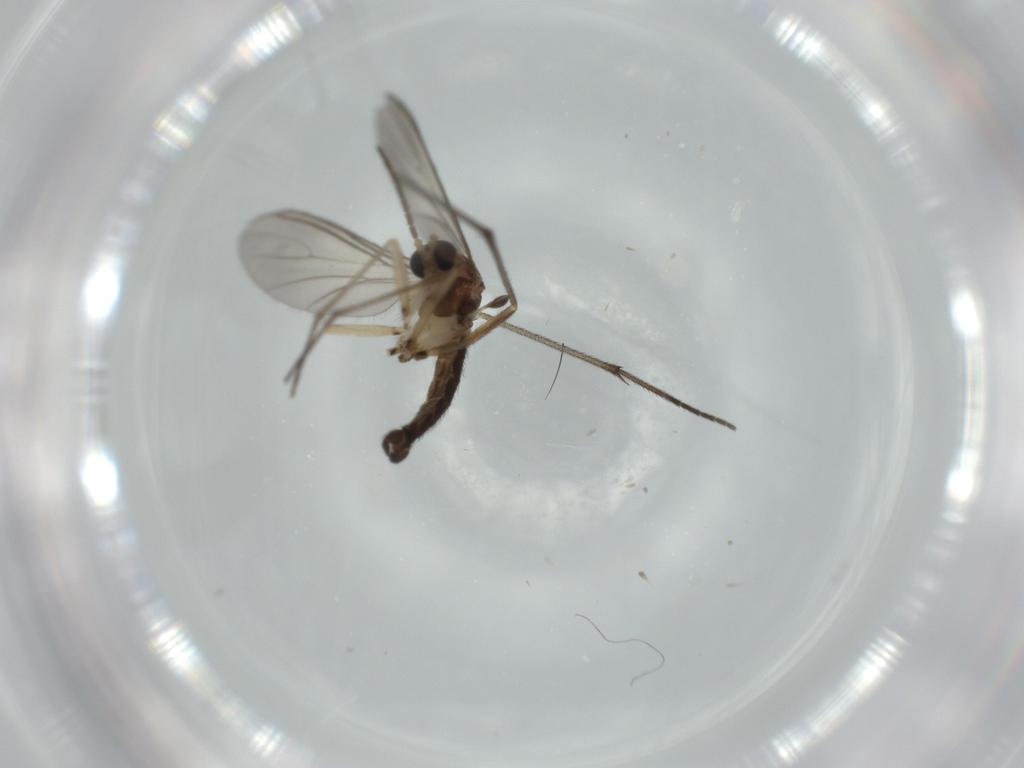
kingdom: Animalia
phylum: Arthropoda
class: Insecta
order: Diptera
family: Sciaridae
